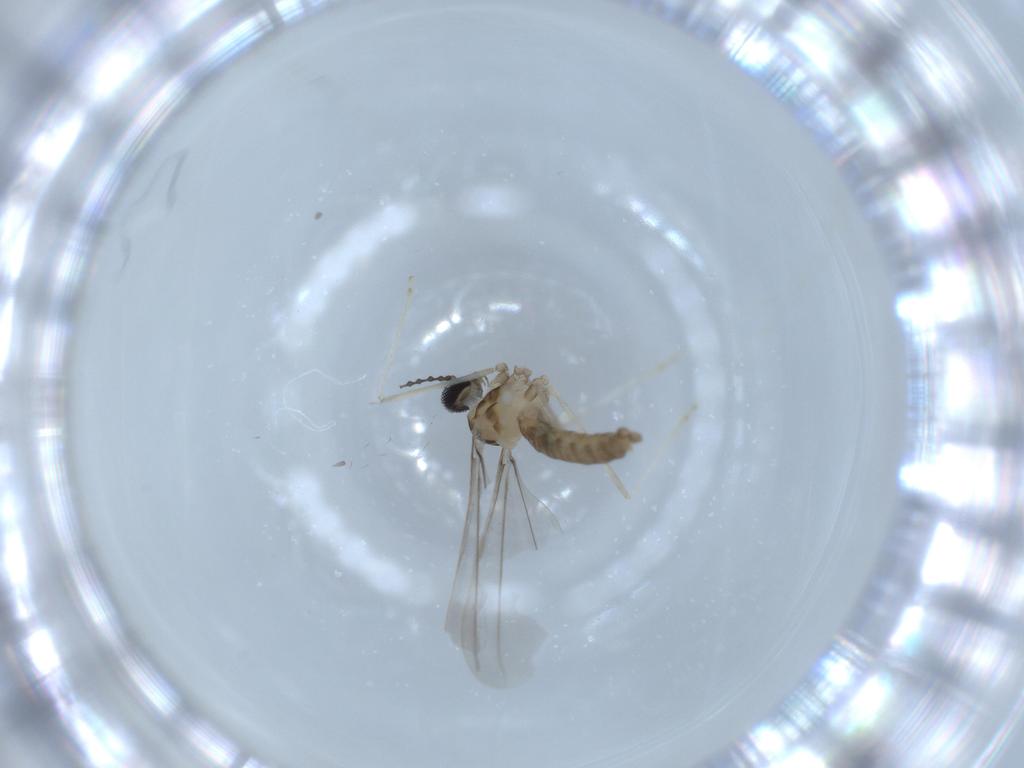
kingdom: Animalia
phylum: Arthropoda
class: Insecta
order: Diptera
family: Cecidomyiidae
